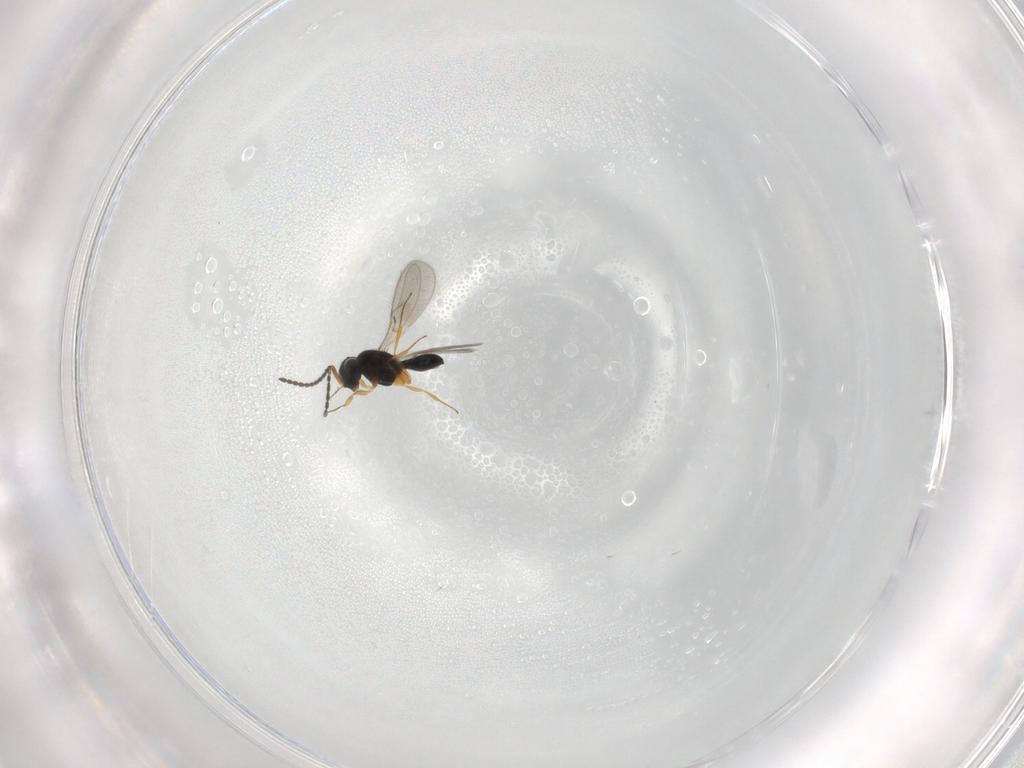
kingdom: Animalia
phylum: Arthropoda
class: Insecta
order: Hymenoptera
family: Scelionidae
